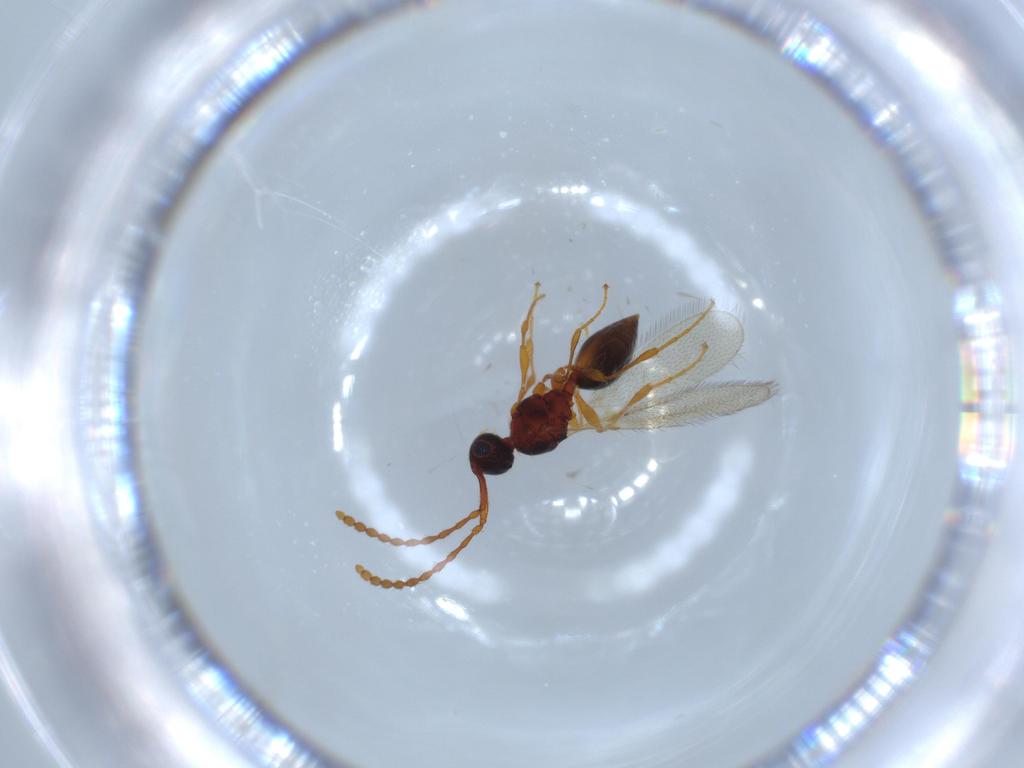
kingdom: Animalia
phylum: Arthropoda
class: Insecta
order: Hymenoptera
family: Diapriidae
